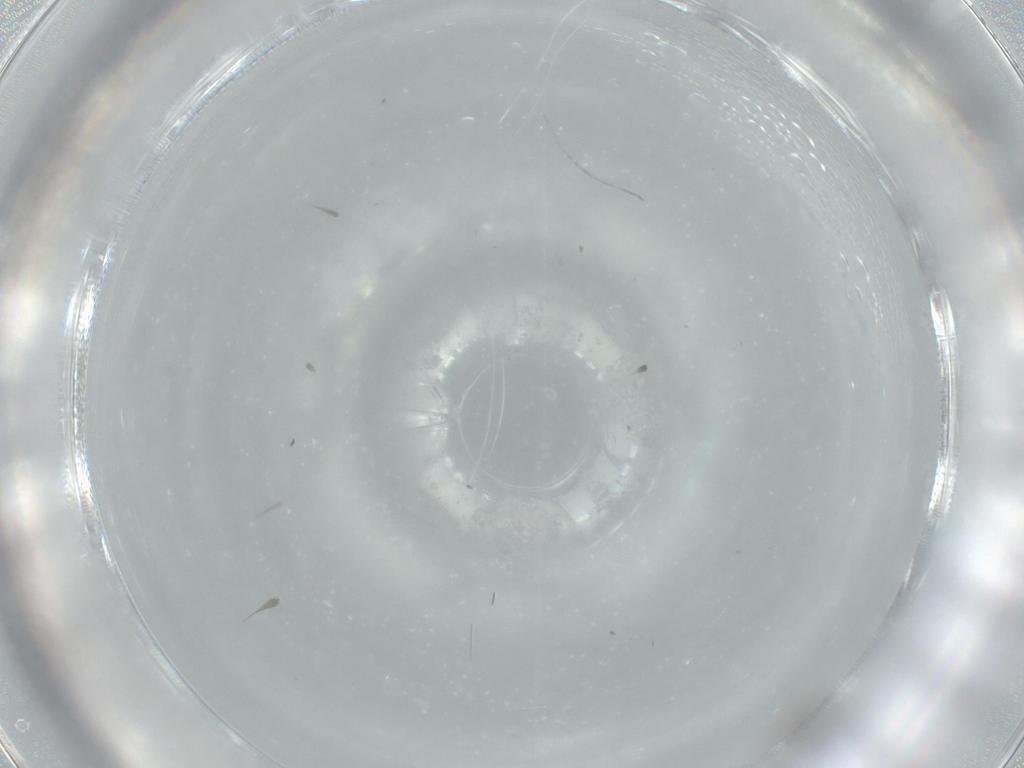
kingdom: Animalia
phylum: Arthropoda
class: Insecta
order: Diptera
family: Cecidomyiidae
